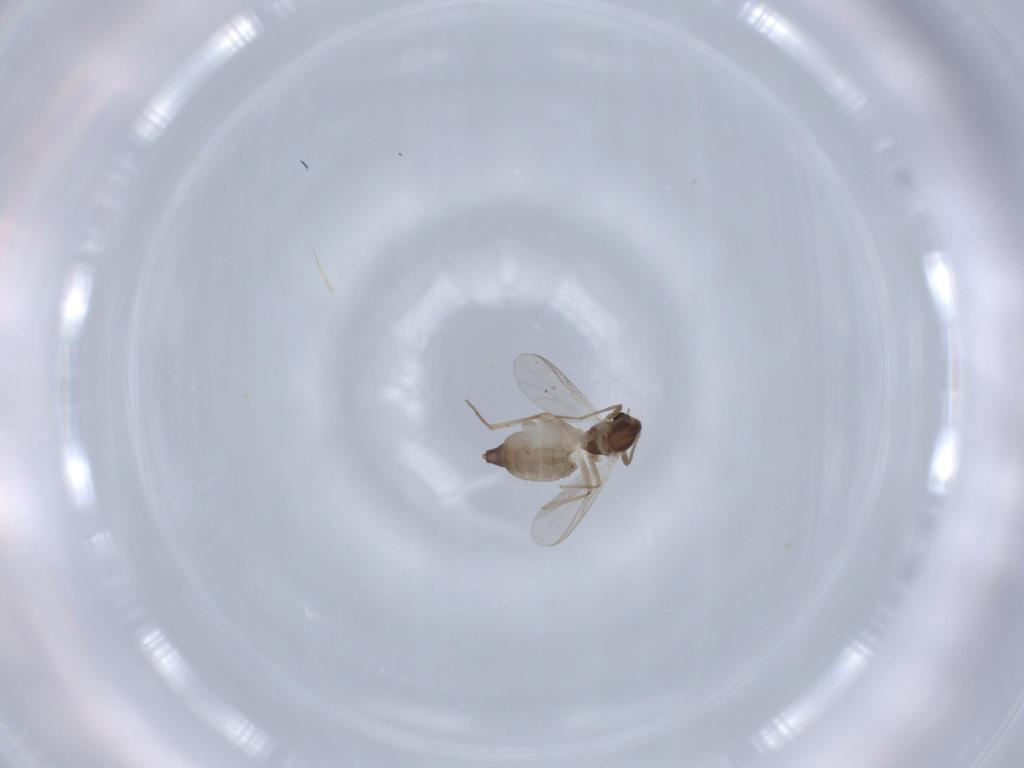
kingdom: Animalia
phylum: Arthropoda
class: Insecta
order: Diptera
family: Chironomidae
